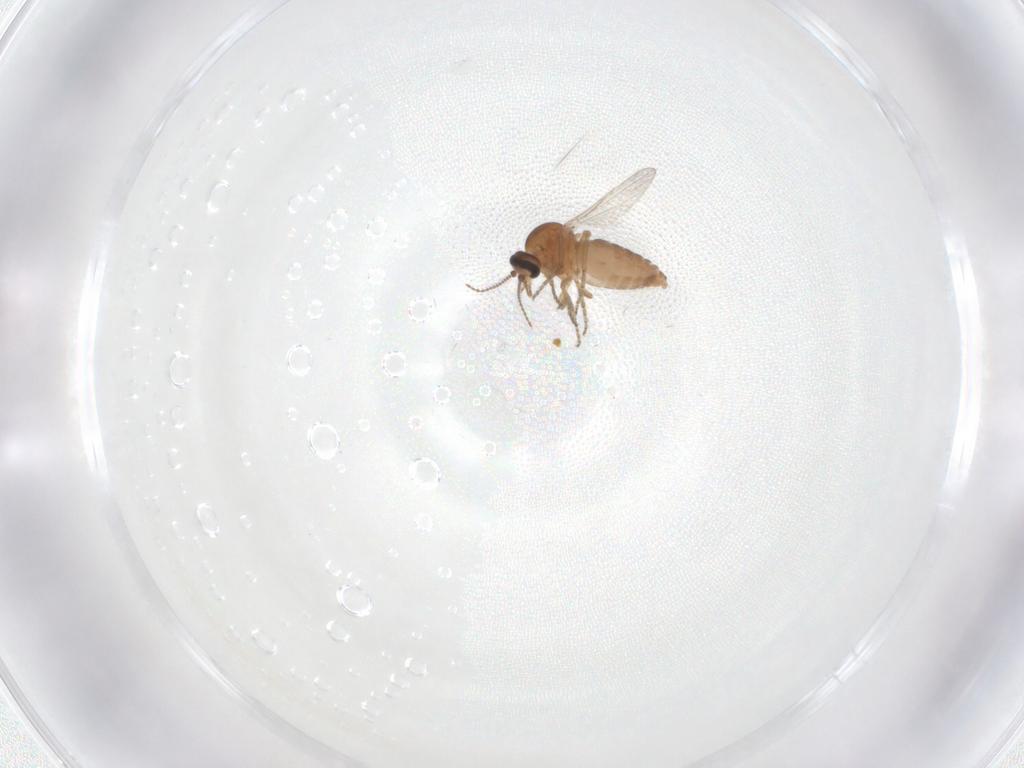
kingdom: Animalia
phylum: Arthropoda
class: Insecta
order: Diptera
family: Ceratopogonidae
